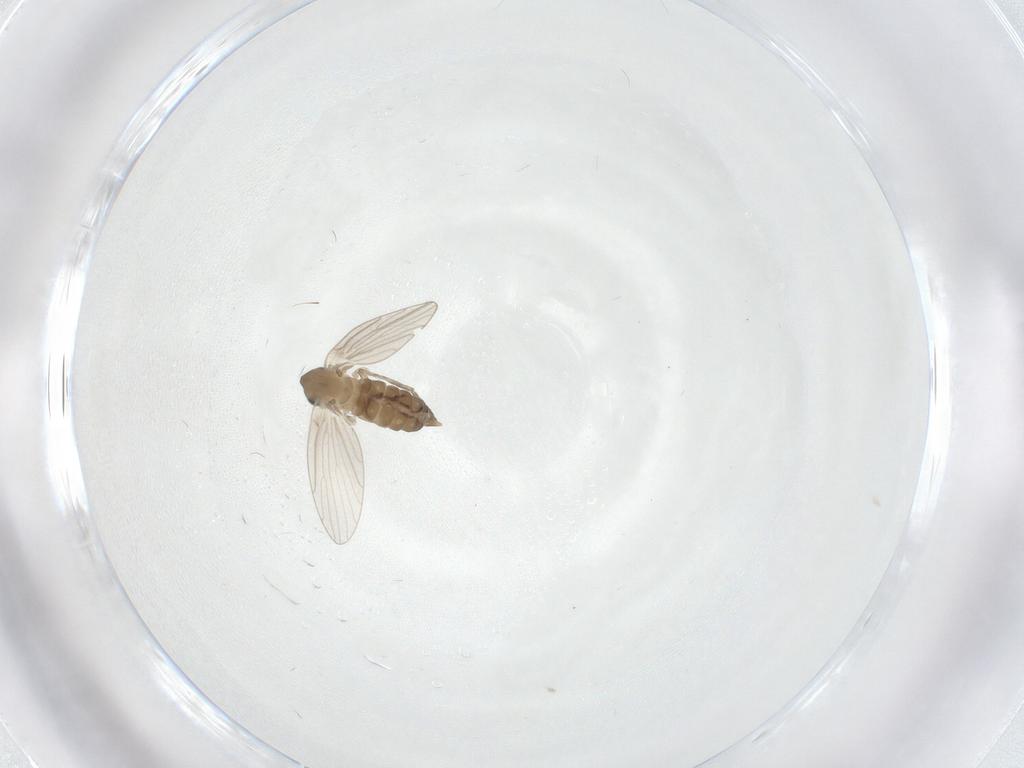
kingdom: Animalia
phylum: Arthropoda
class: Insecta
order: Diptera
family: Psychodidae
